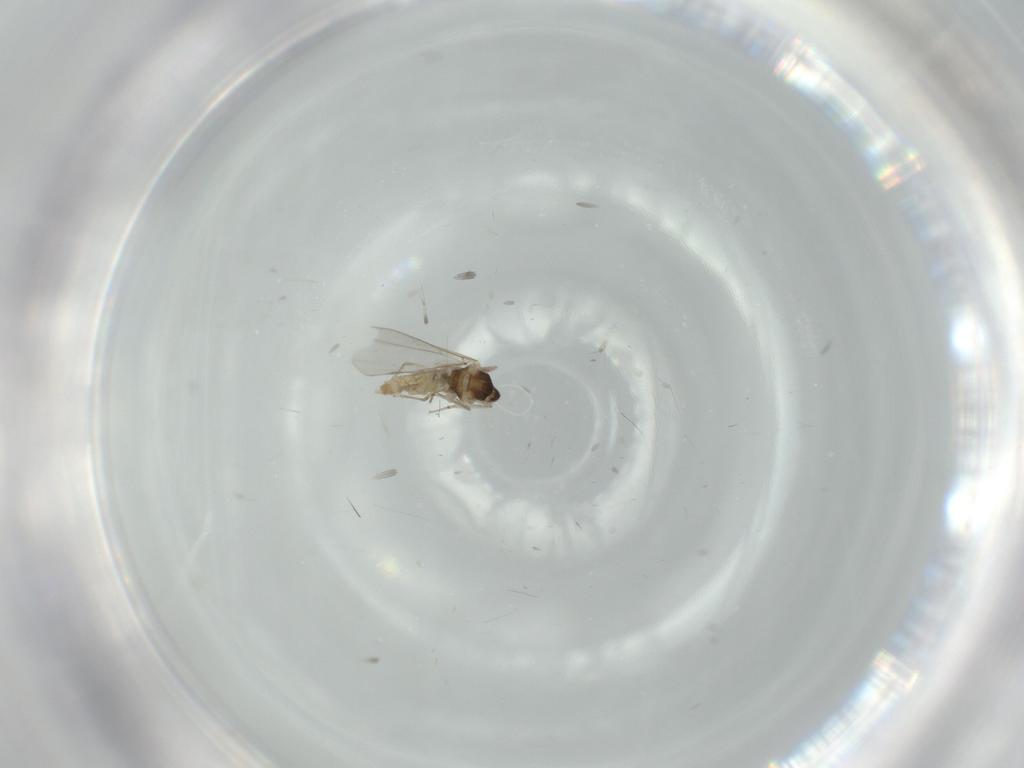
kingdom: Animalia
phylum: Arthropoda
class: Insecta
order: Diptera
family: Cecidomyiidae
